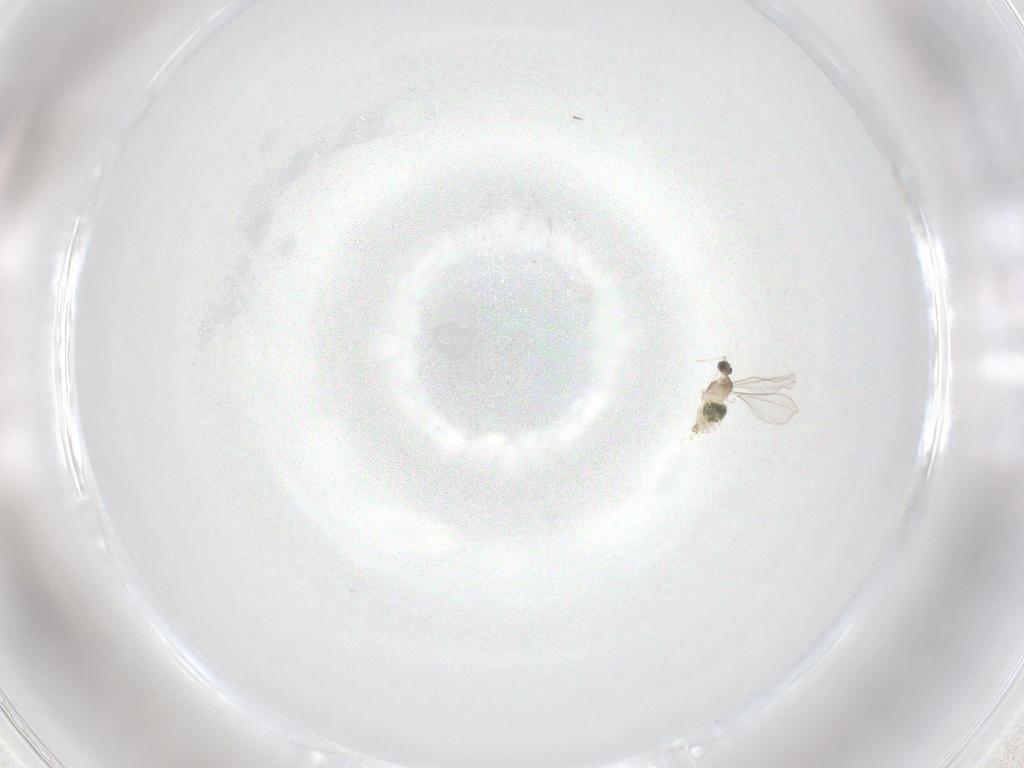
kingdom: Animalia
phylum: Arthropoda
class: Insecta
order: Diptera
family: Cecidomyiidae
